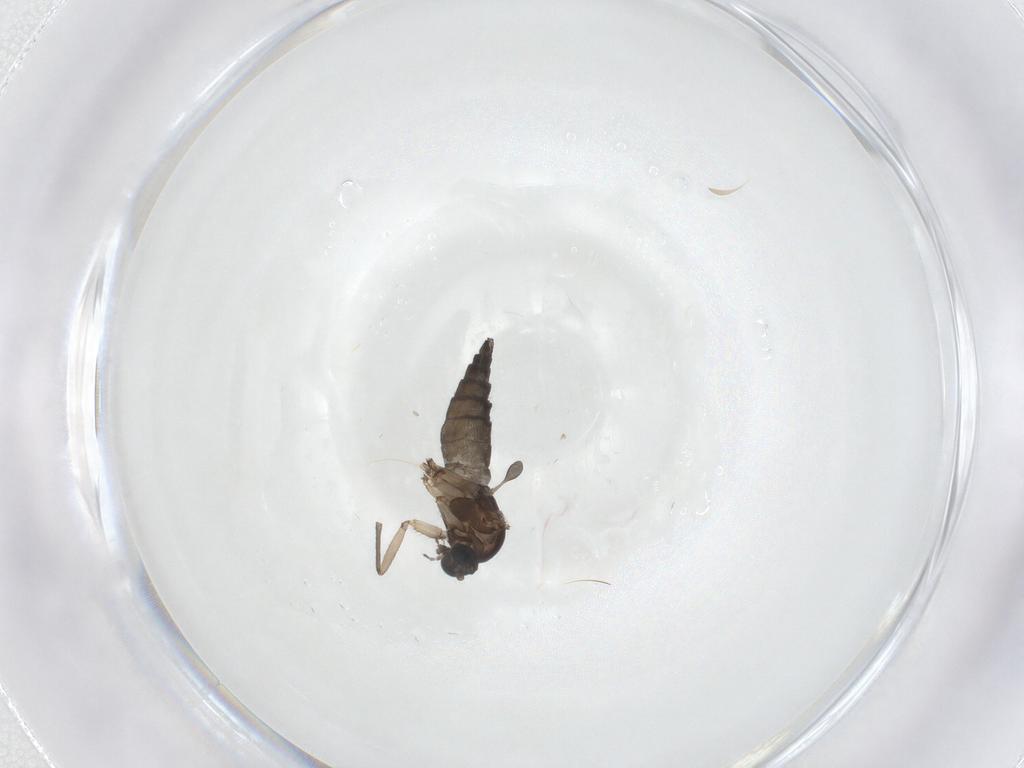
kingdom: Animalia
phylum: Arthropoda
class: Insecta
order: Diptera
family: Sciaridae
